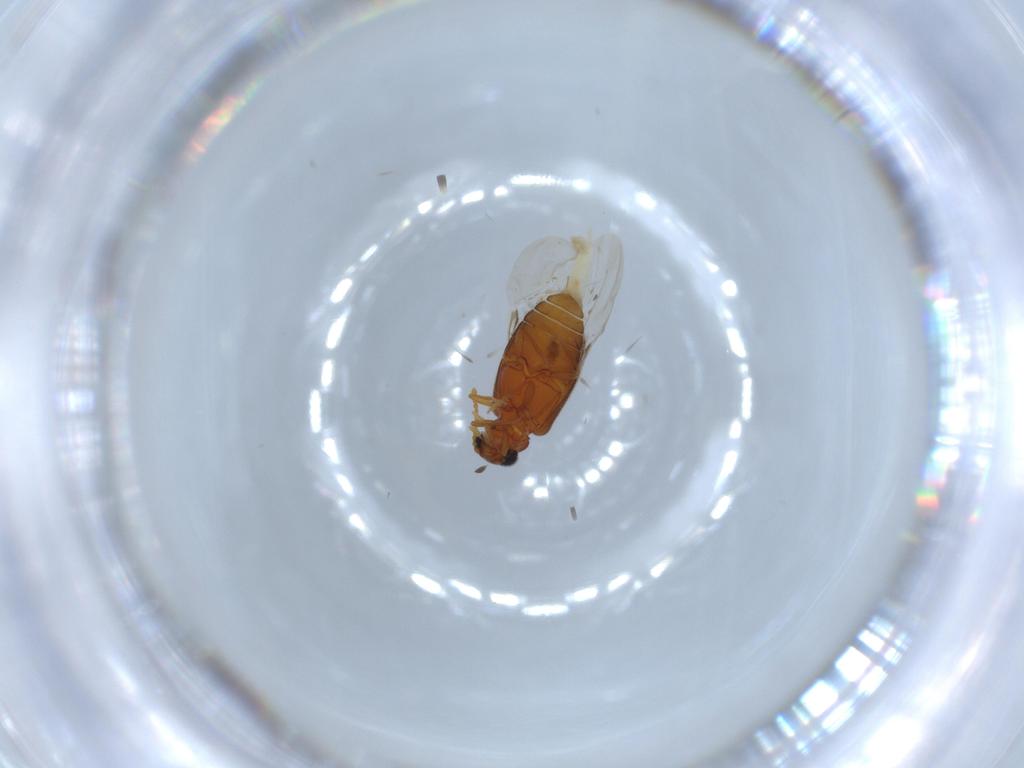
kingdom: Animalia
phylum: Arthropoda
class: Insecta
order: Coleoptera
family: Aderidae
